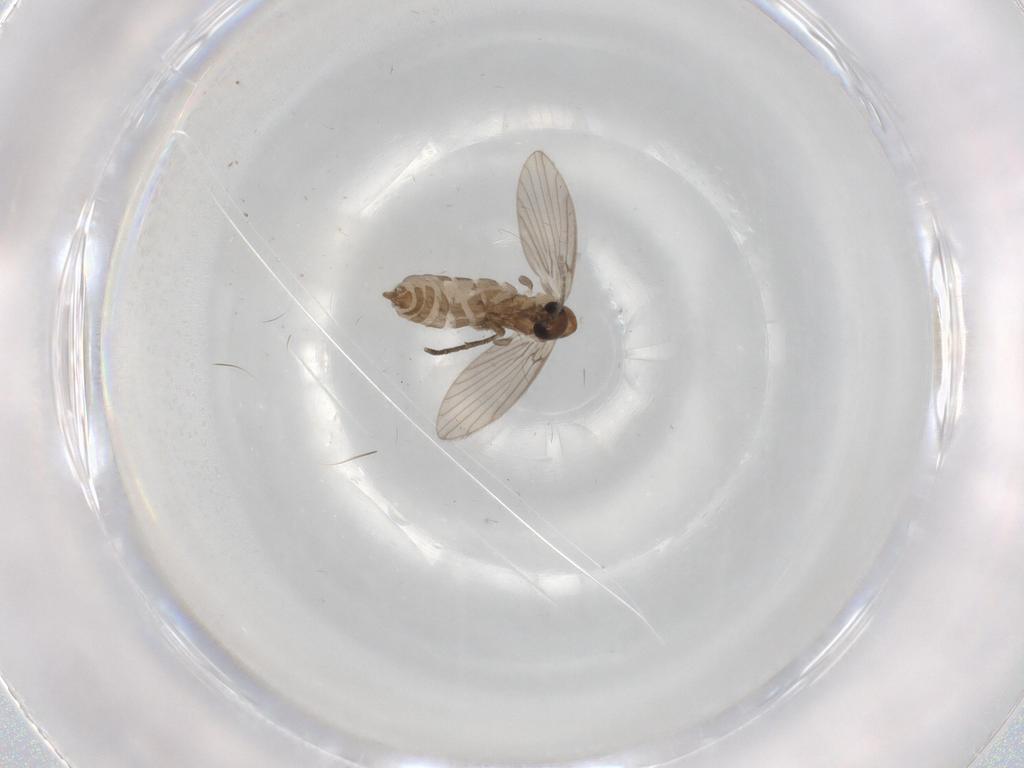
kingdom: Animalia
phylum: Arthropoda
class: Insecta
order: Diptera
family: Psychodidae
